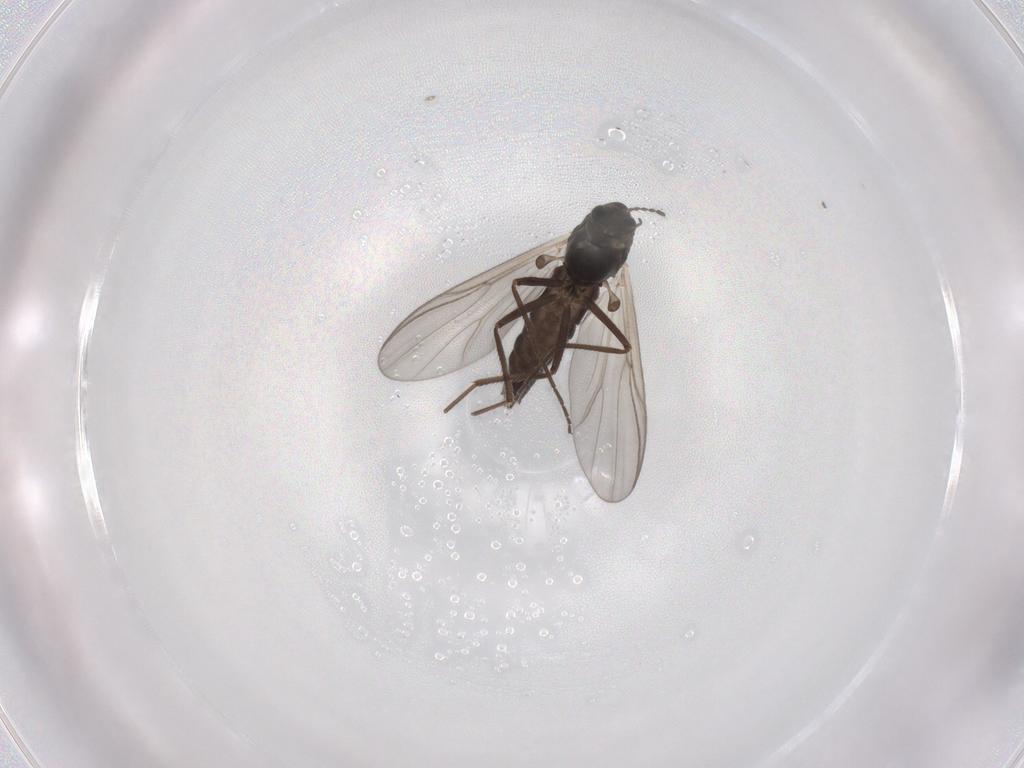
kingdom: Animalia
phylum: Arthropoda
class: Insecta
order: Diptera
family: Chironomidae
